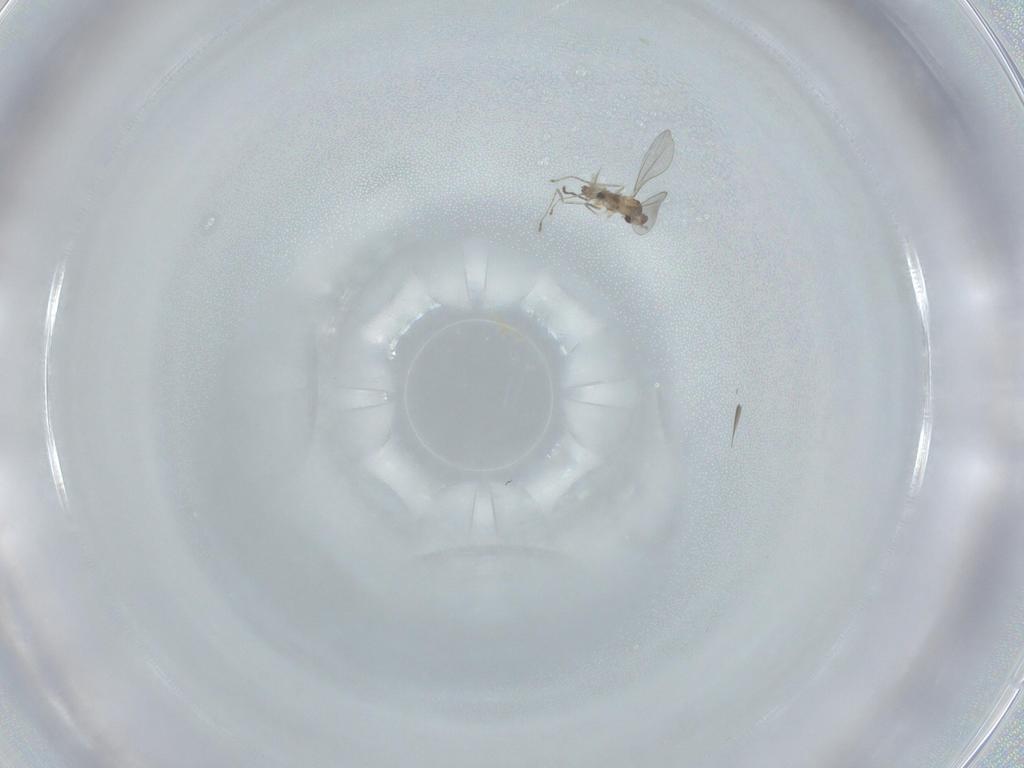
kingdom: Animalia
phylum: Arthropoda
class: Insecta
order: Diptera
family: Cecidomyiidae
